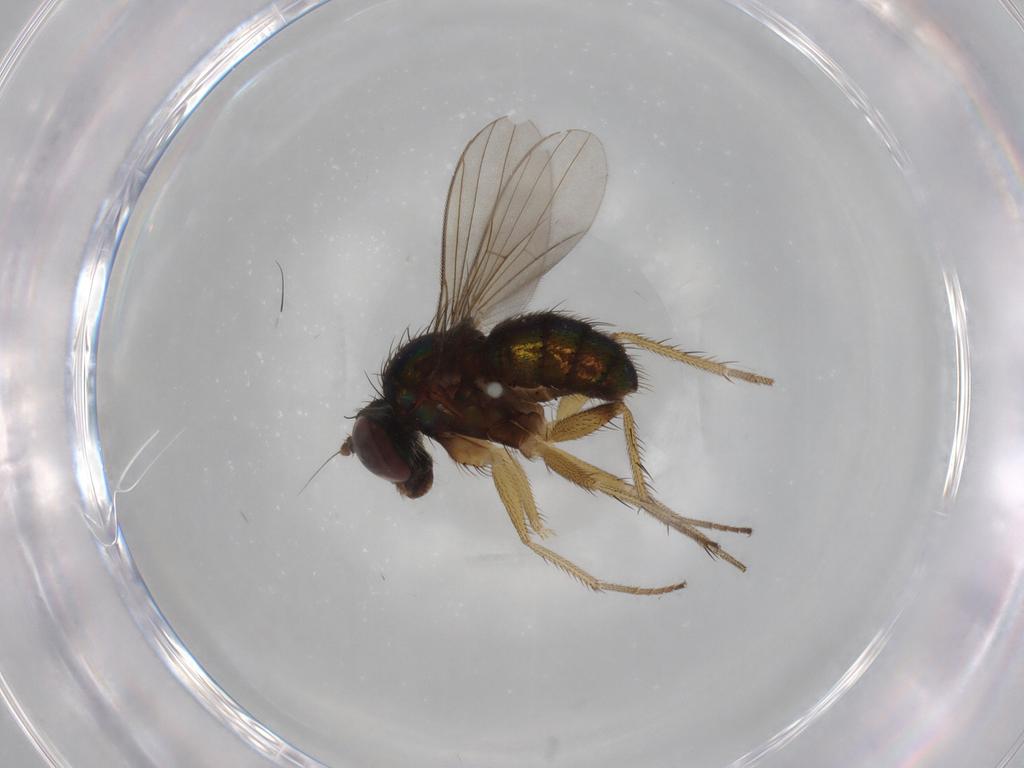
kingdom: Animalia
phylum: Arthropoda
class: Insecta
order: Diptera
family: Dolichopodidae
